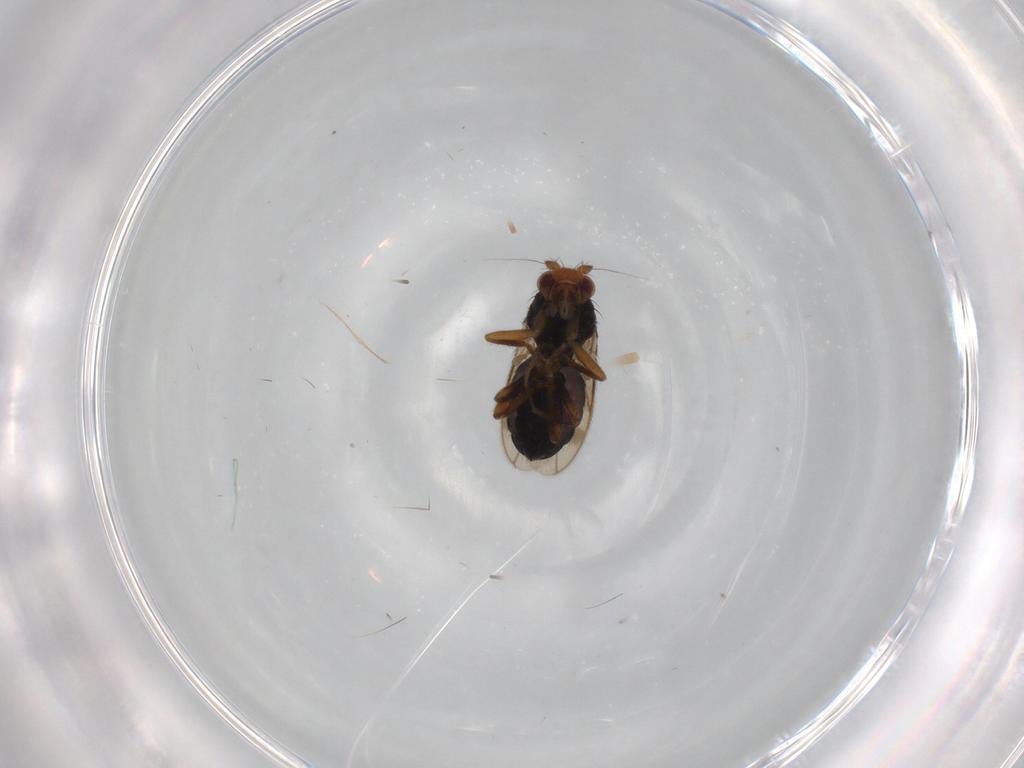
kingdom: Animalia
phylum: Arthropoda
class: Insecta
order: Diptera
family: Sphaeroceridae
